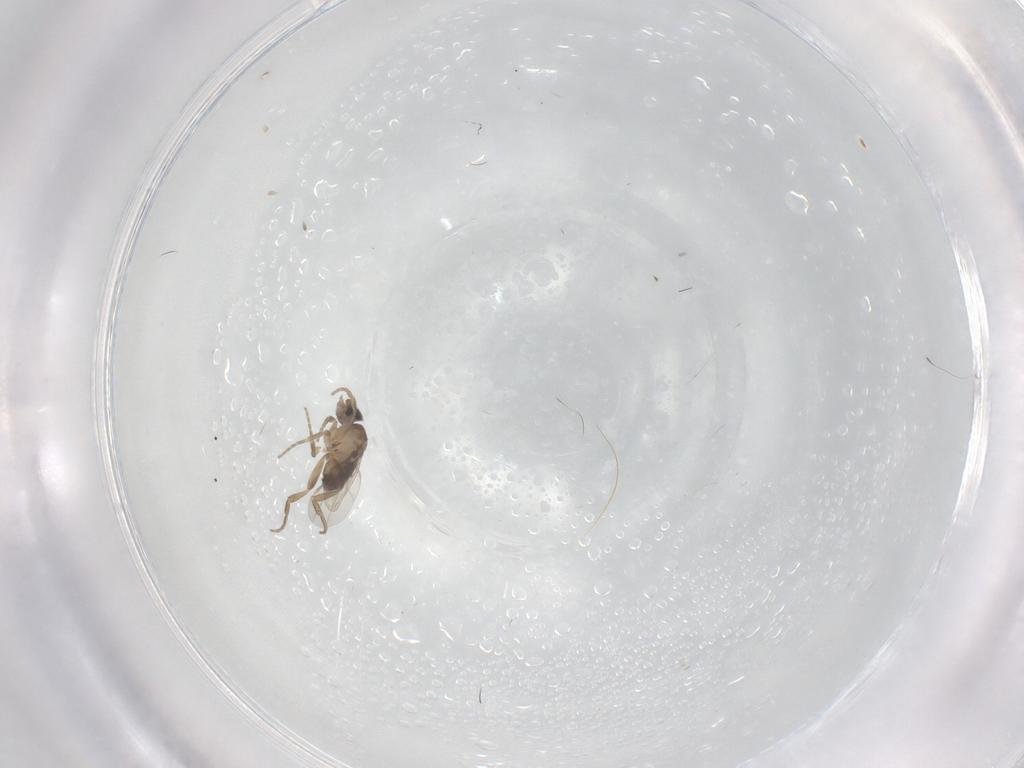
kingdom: Animalia
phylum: Arthropoda
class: Insecta
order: Diptera
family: Phoridae
